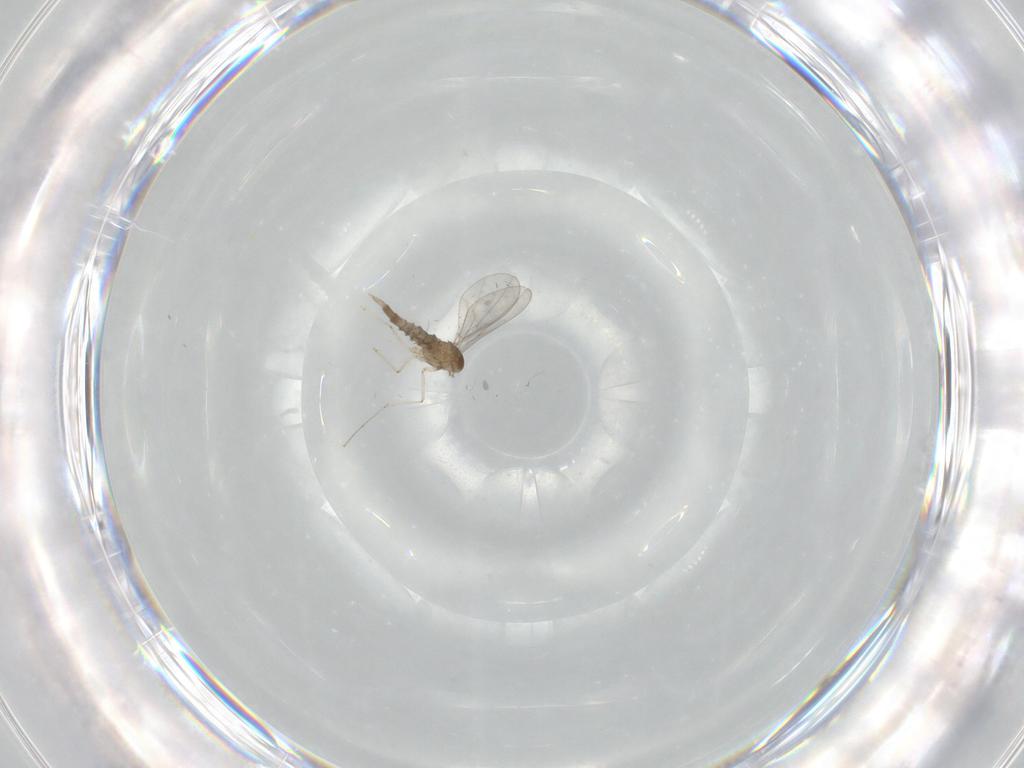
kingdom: Animalia
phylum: Arthropoda
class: Insecta
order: Diptera
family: Cecidomyiidae
